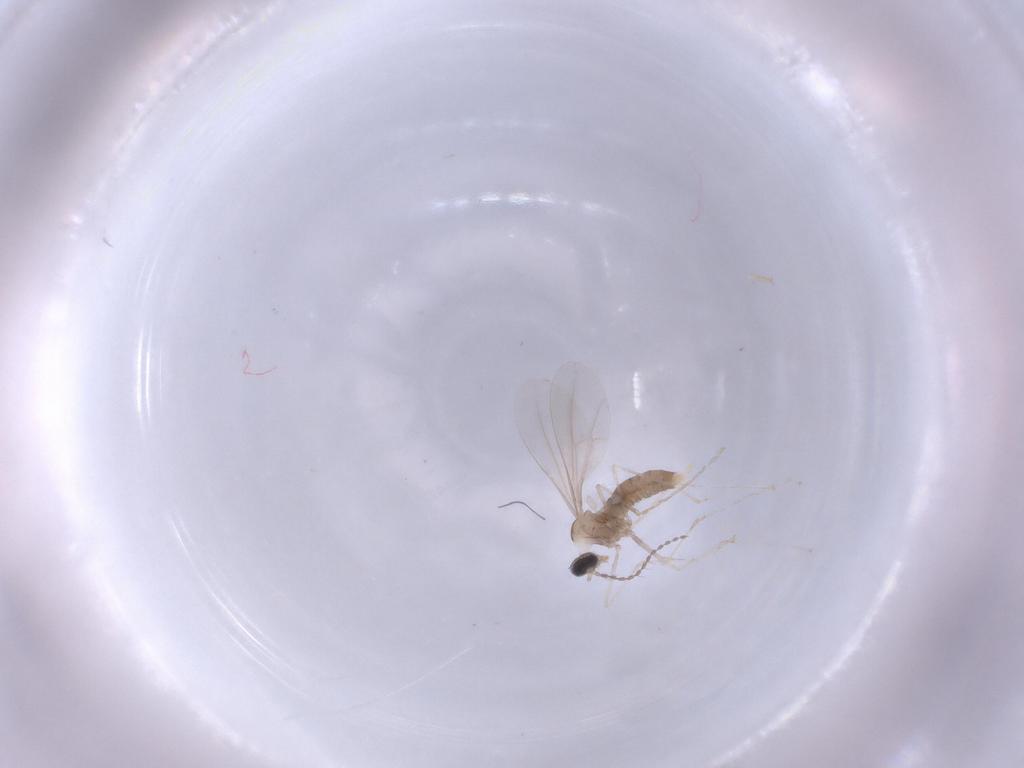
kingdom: Animalia
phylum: Arthropoda
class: Insecta
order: Diptera
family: Cecidomyiidae
